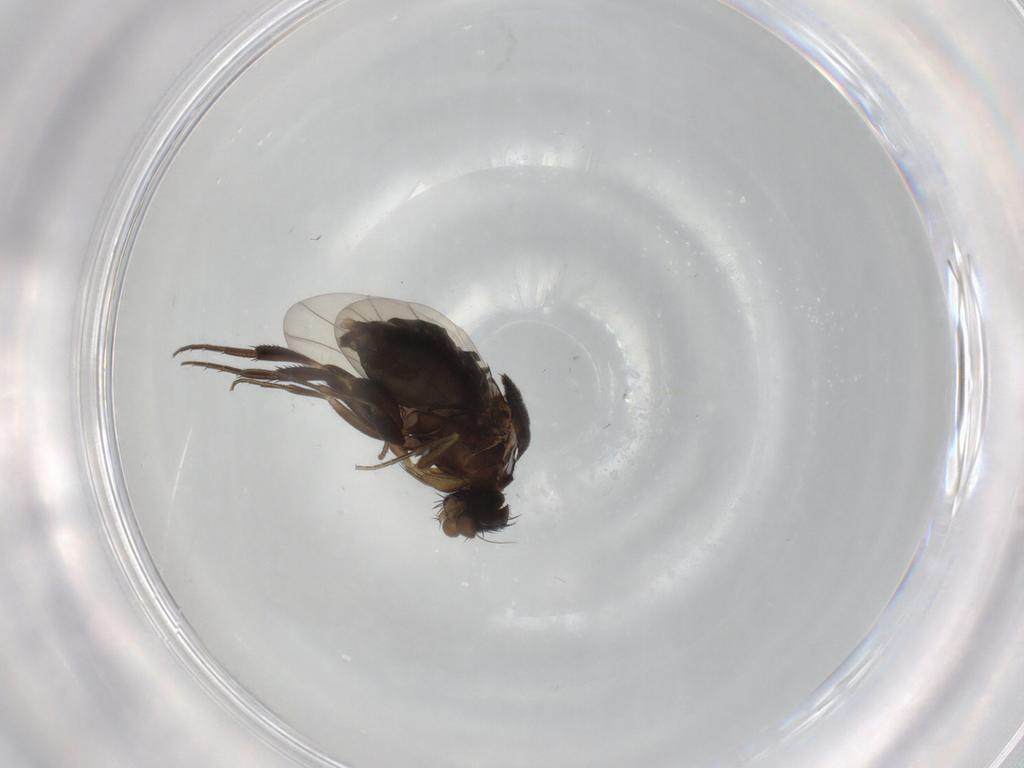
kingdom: Animalia
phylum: Arthropoda
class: Insecta
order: Diptera
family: Phoridae
